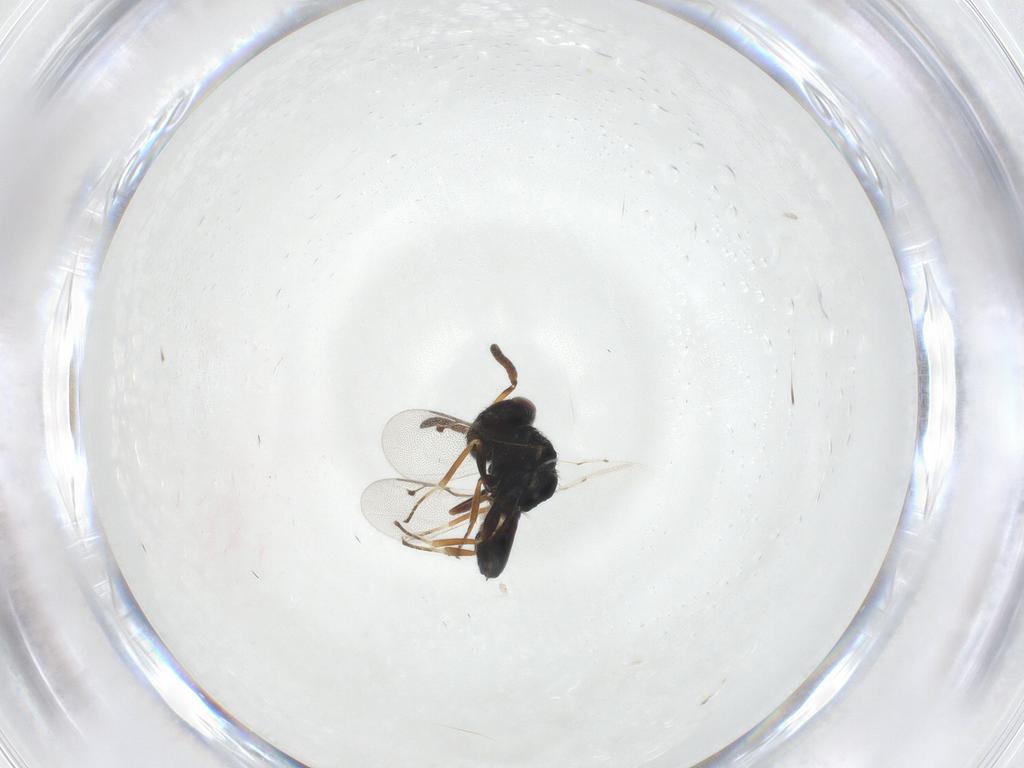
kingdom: Animalia
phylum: Arthropoda
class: Insecta
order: Hymenoptera
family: Pteromalidae
